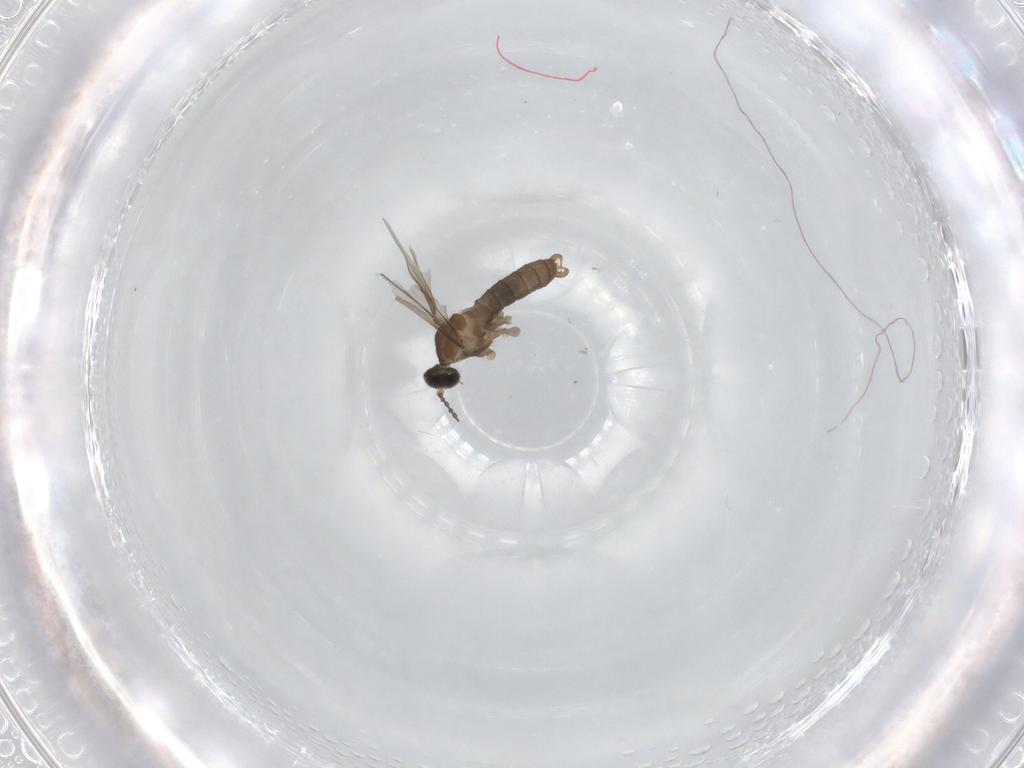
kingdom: Animalia
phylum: Arthropoda
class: Insecta
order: Diptera
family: Cecidomyiidae
